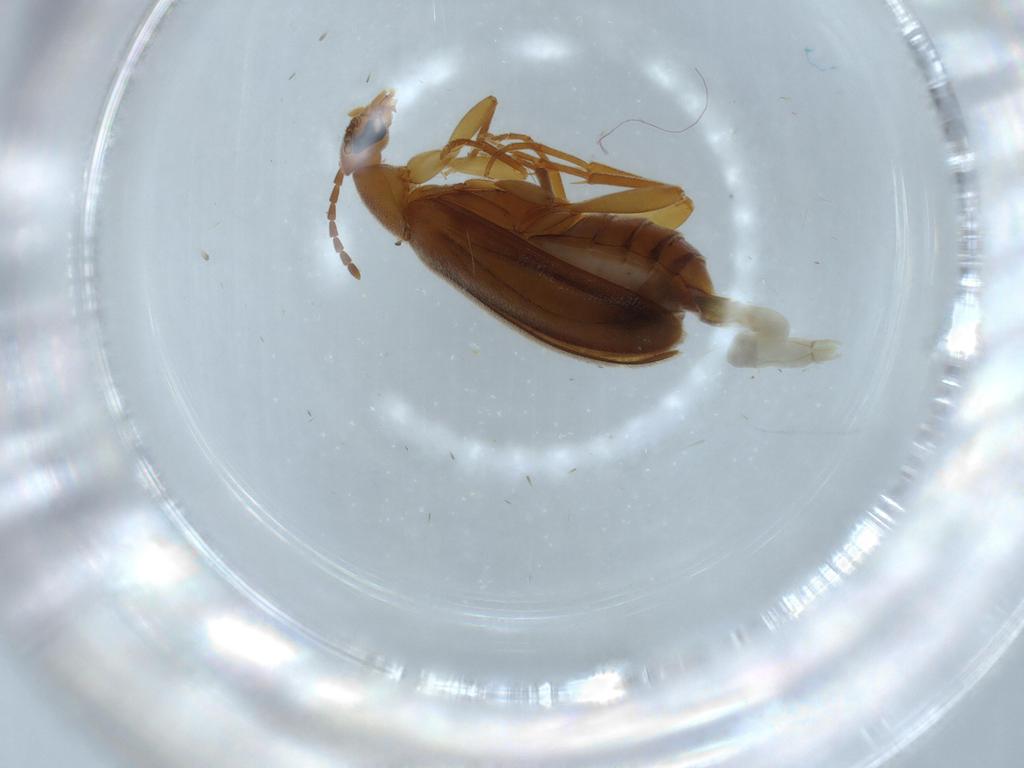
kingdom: Animalia
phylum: Arthropoda
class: Insecta
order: Coleoptera
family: Scraptiidae
